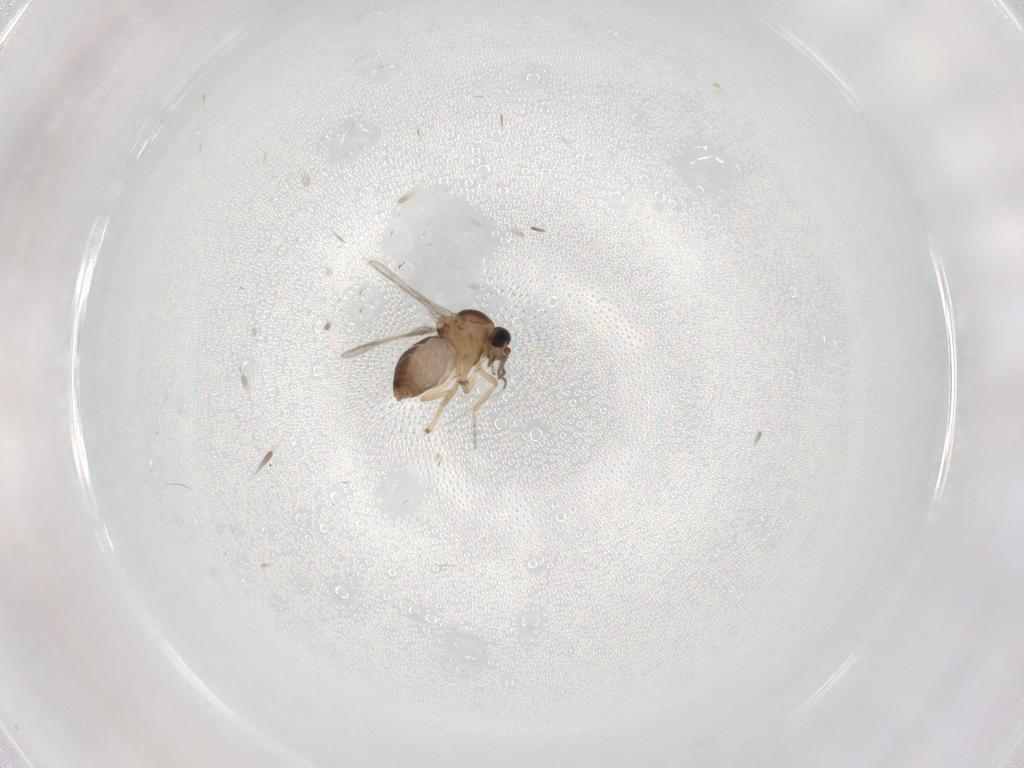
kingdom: Animalia
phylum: Arthropoda
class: Insecta
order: Diptera
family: Ceratopogonidae
